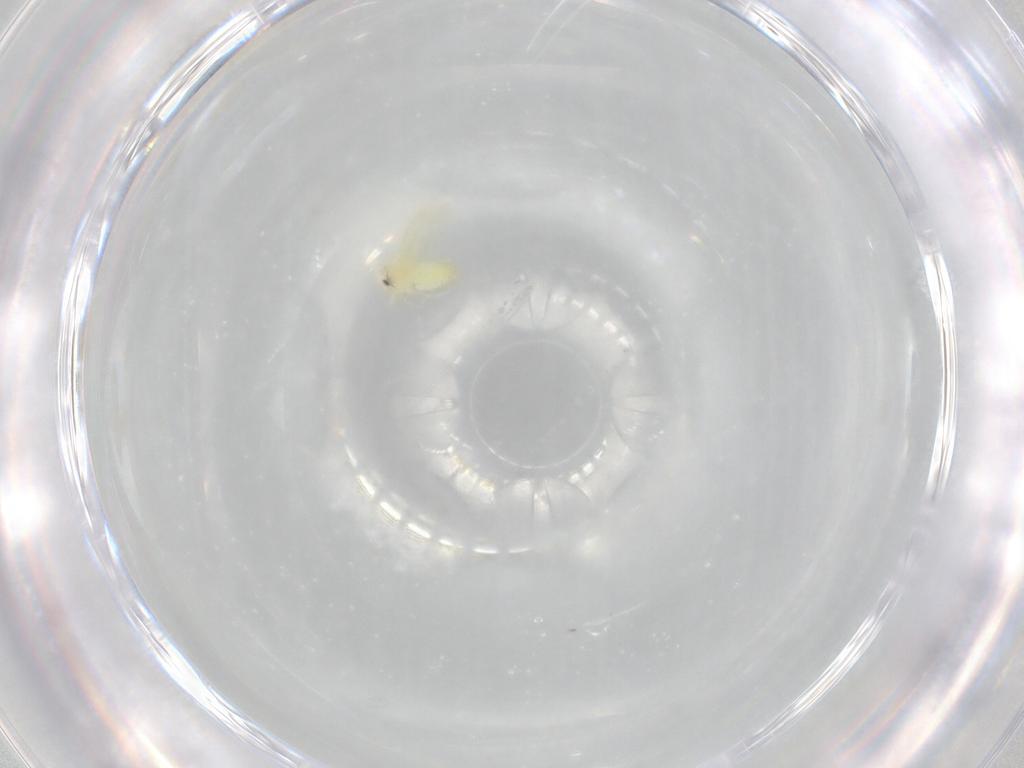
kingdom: Animalia
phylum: Arthropoda
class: Insecta
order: Hemiptera
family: Aleyrodidae
